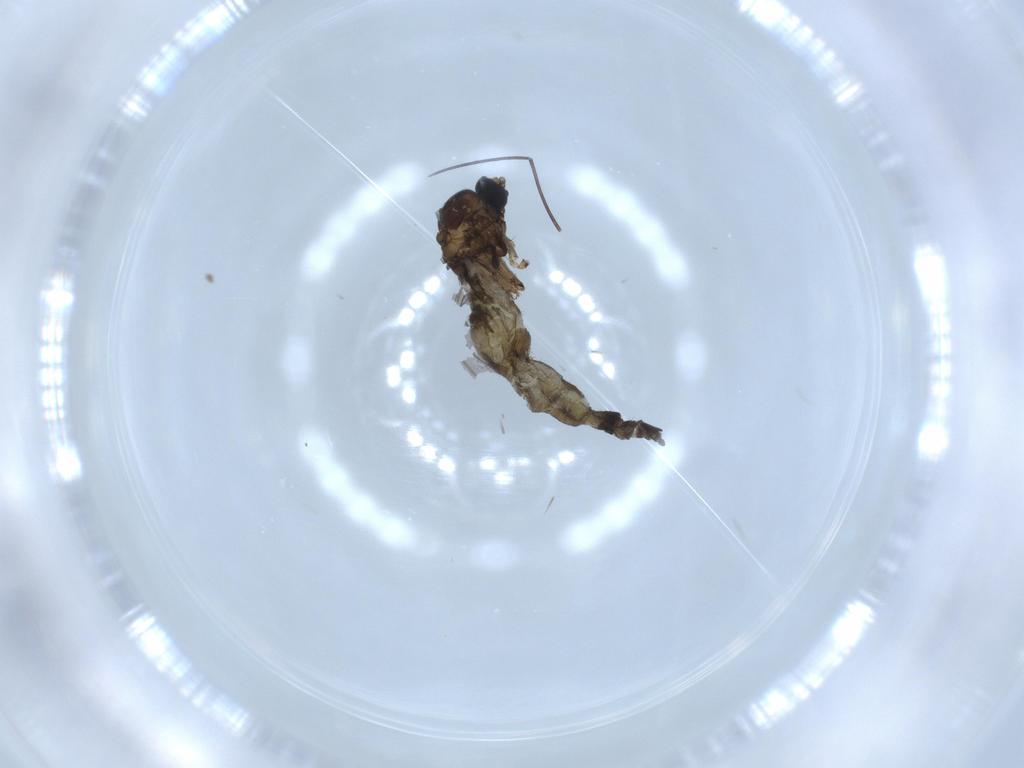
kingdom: Animalia
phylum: Arthropoda
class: Insecta
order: Diptera
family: Sciaridae
